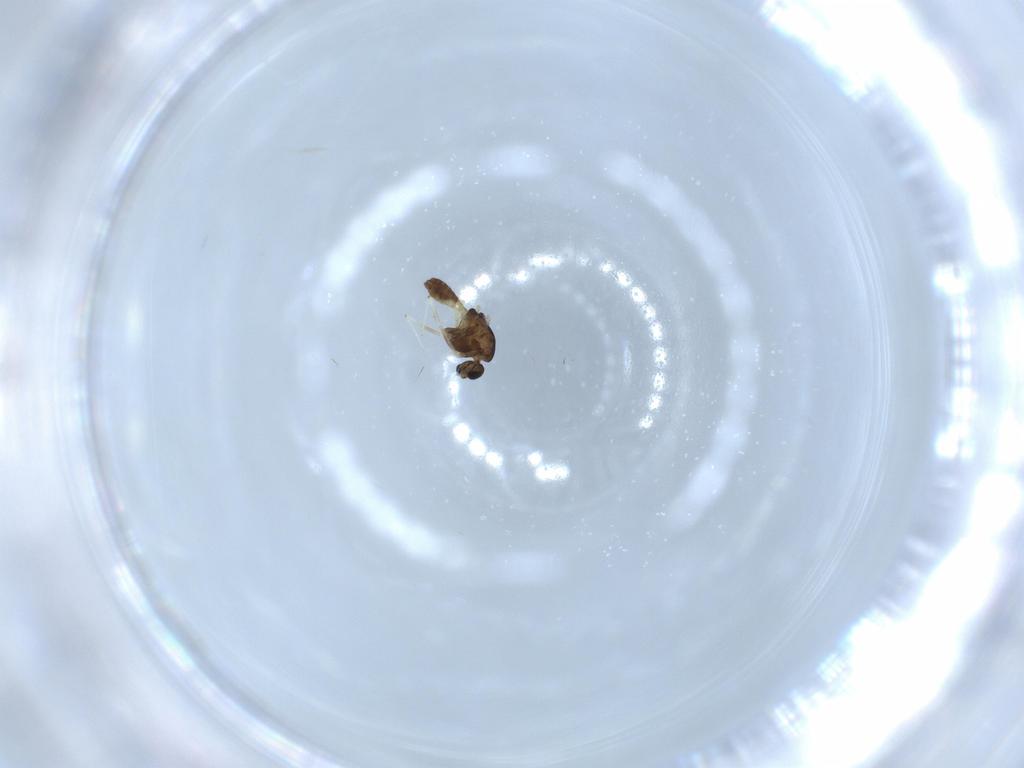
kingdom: Animalia
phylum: Arthropoda
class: Insecta
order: Diptera
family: Chironomidae
